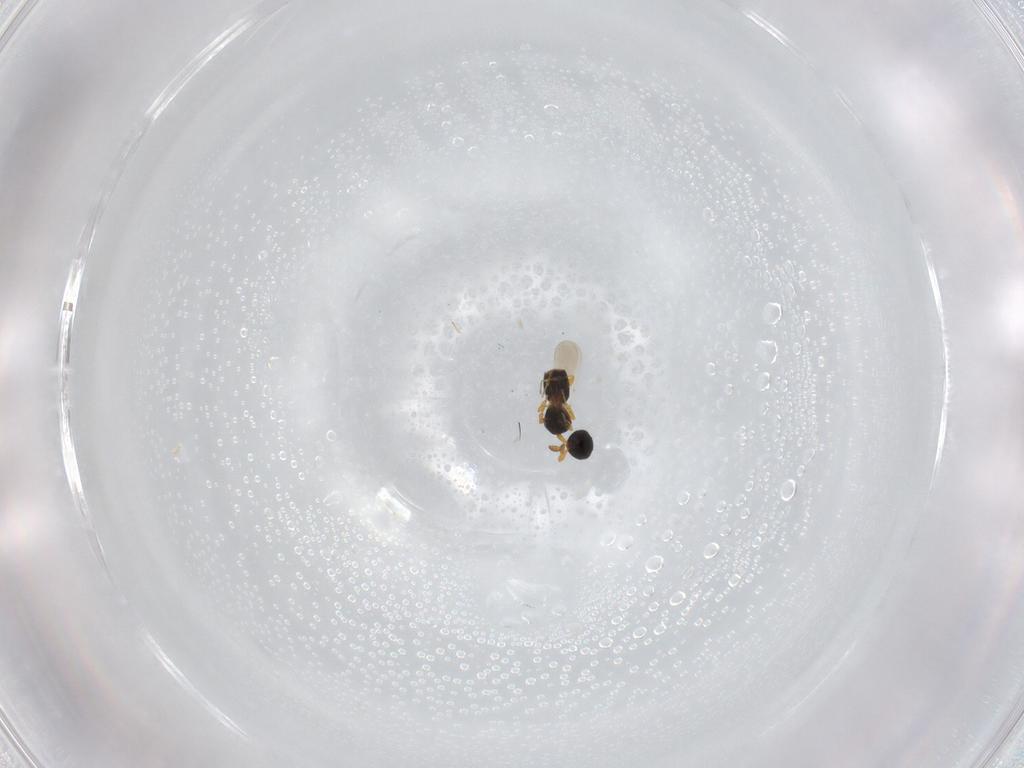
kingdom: Animalia
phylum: Arthropoda
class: Insecta
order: Hymenoptera
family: Platygastridae
